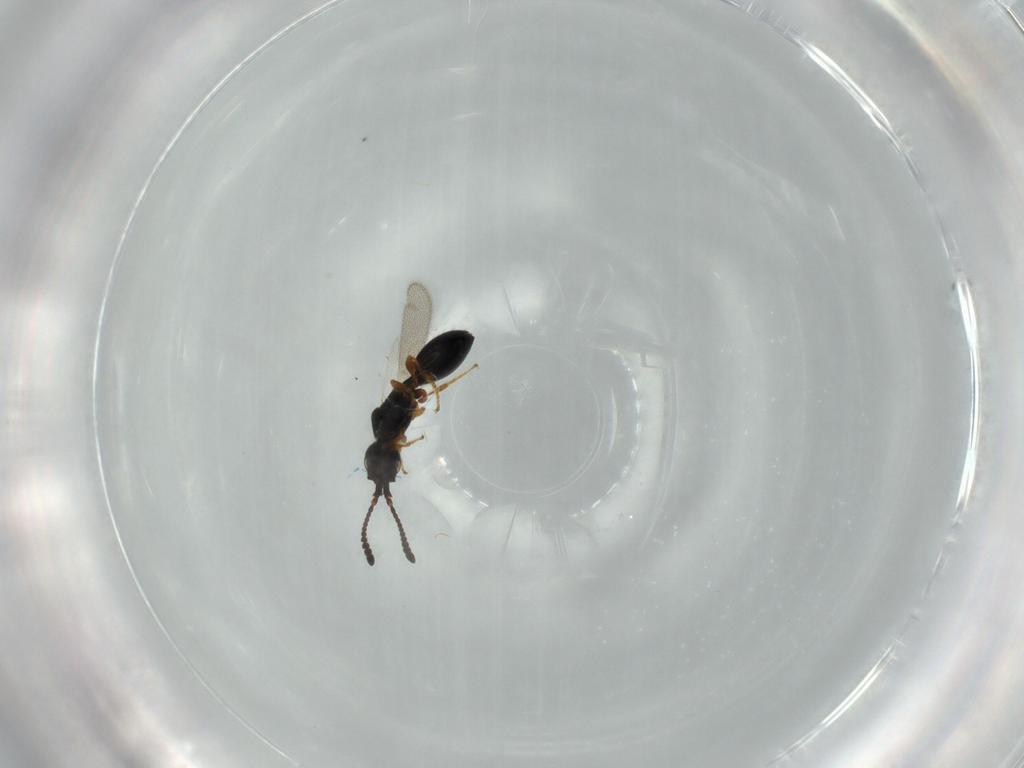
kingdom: Animalia
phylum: Arthropoda
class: Insecta
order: Hymenoptera
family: Diapriidae
